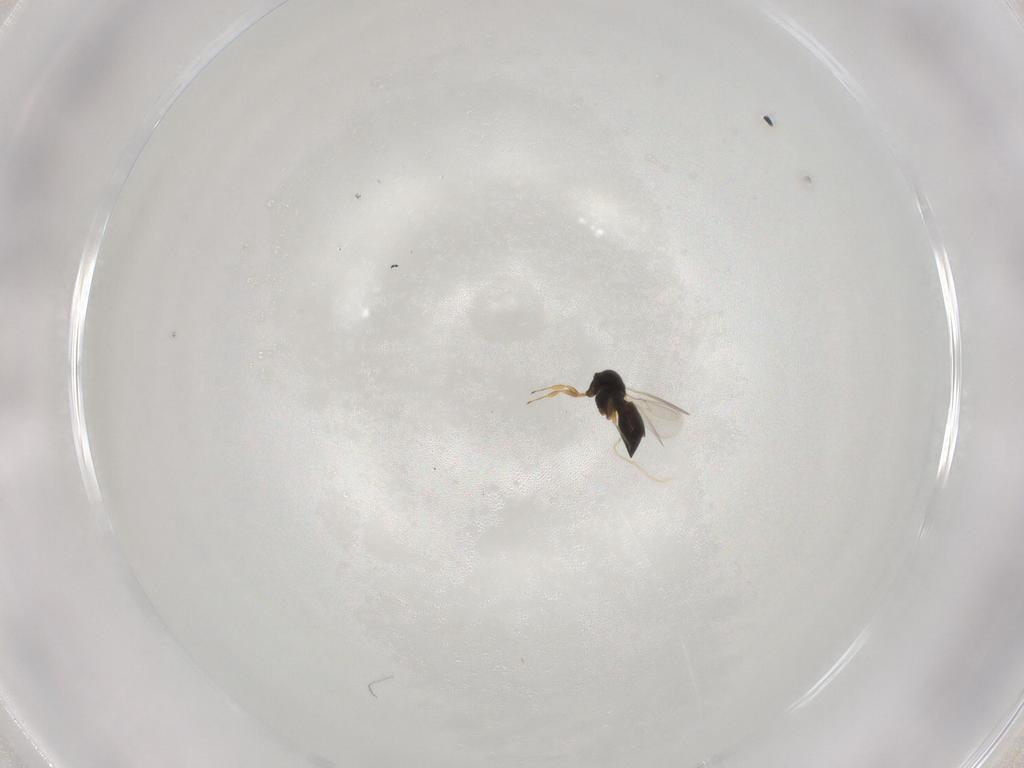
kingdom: Animalia
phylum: Arthropoda
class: Insecta
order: Hymenoptera
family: Scelionidae
